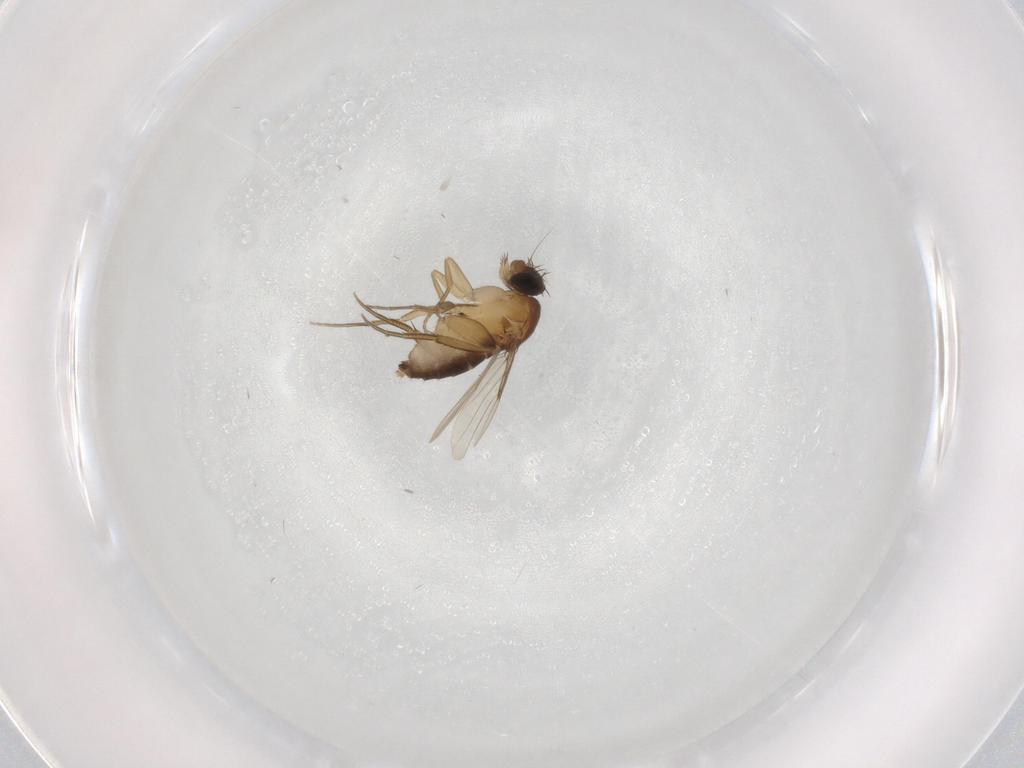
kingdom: Animalia
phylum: Arthropoda
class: Insecta
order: Diptera
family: Phoridae
